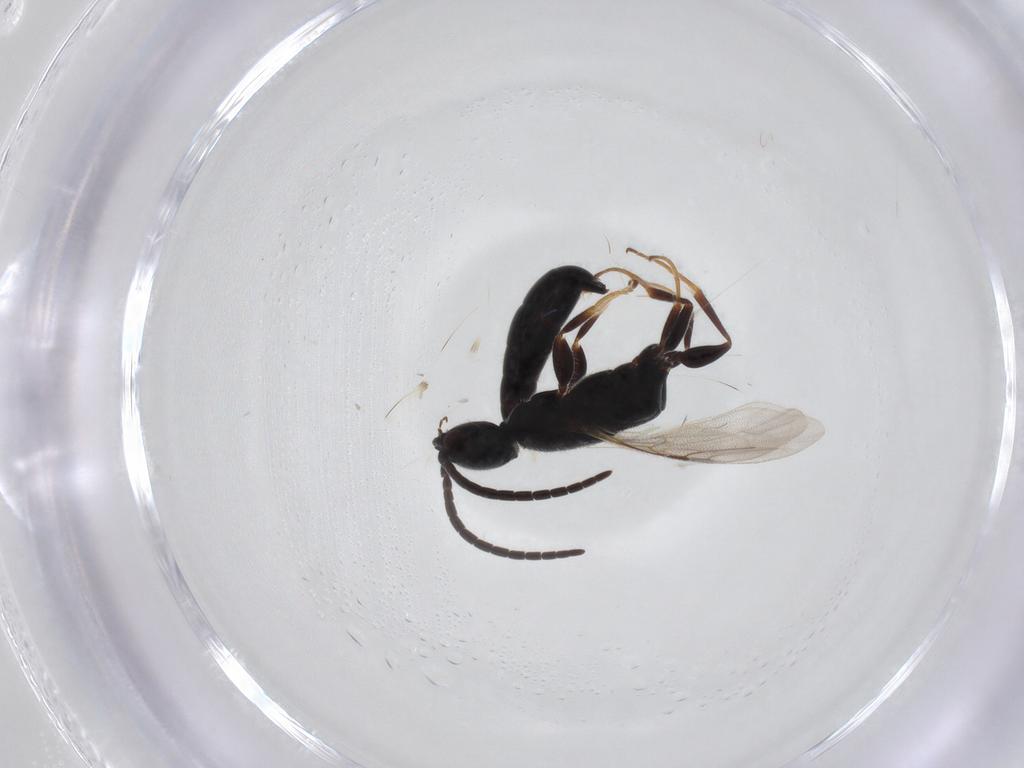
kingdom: Animalia
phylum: Arthropoda
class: Insecta
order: Hymenoptera
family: Bethylidae
